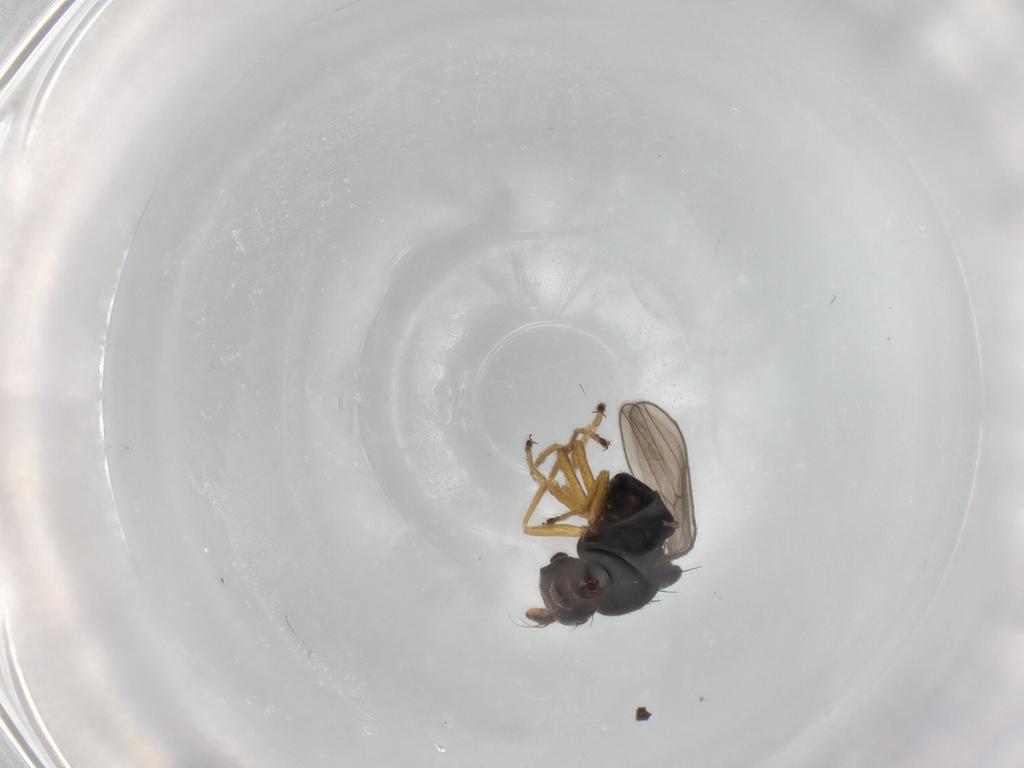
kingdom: Animalia
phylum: Arthropoda
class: Insecta
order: Diptera
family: Ephydridae
